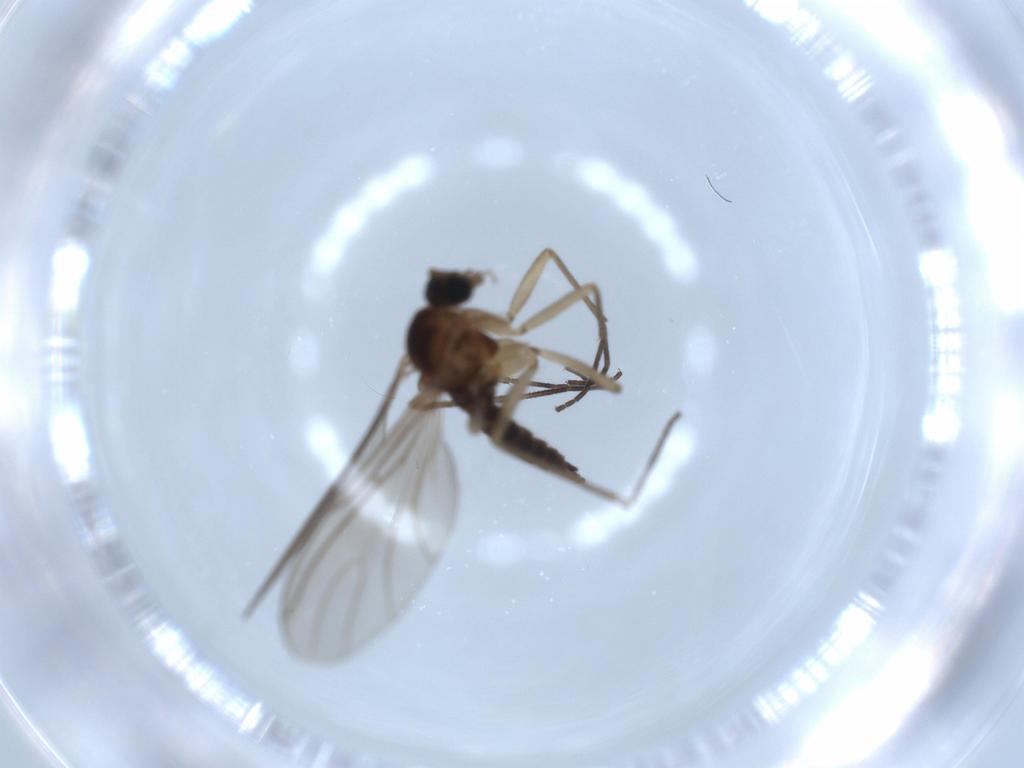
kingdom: Animalia
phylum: Arthropoda
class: Insecta
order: Diptera
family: Sciaridae
